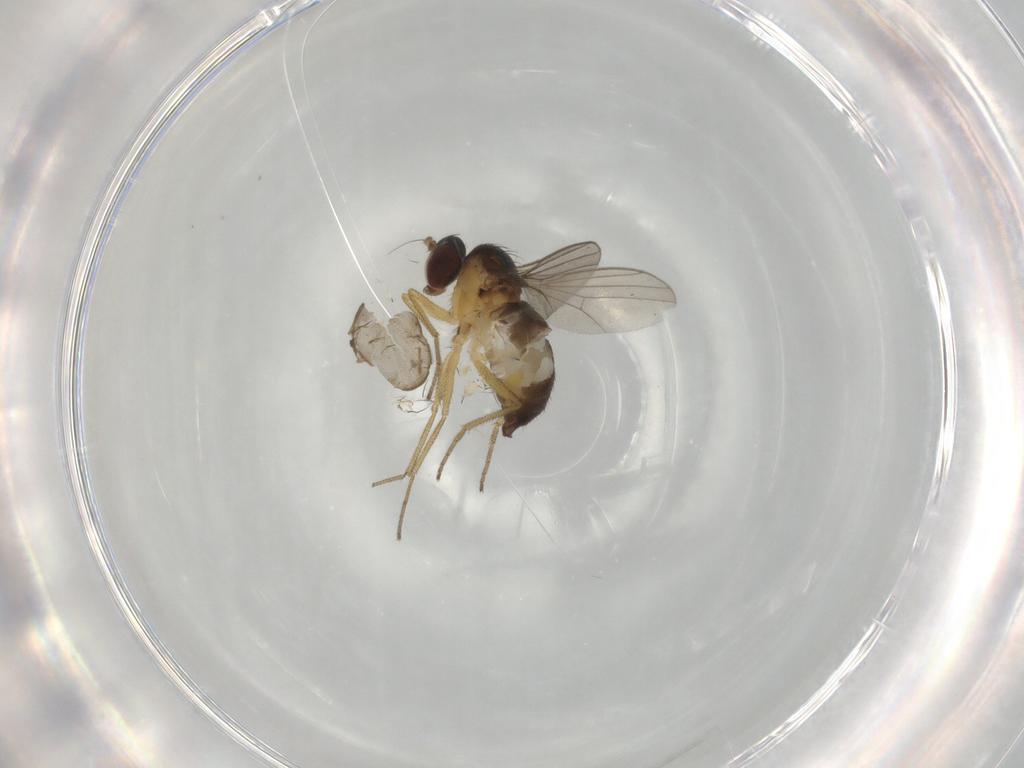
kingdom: Animalia
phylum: Arthropoda
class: Insecta
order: Diptera
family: Dolichopodidae
